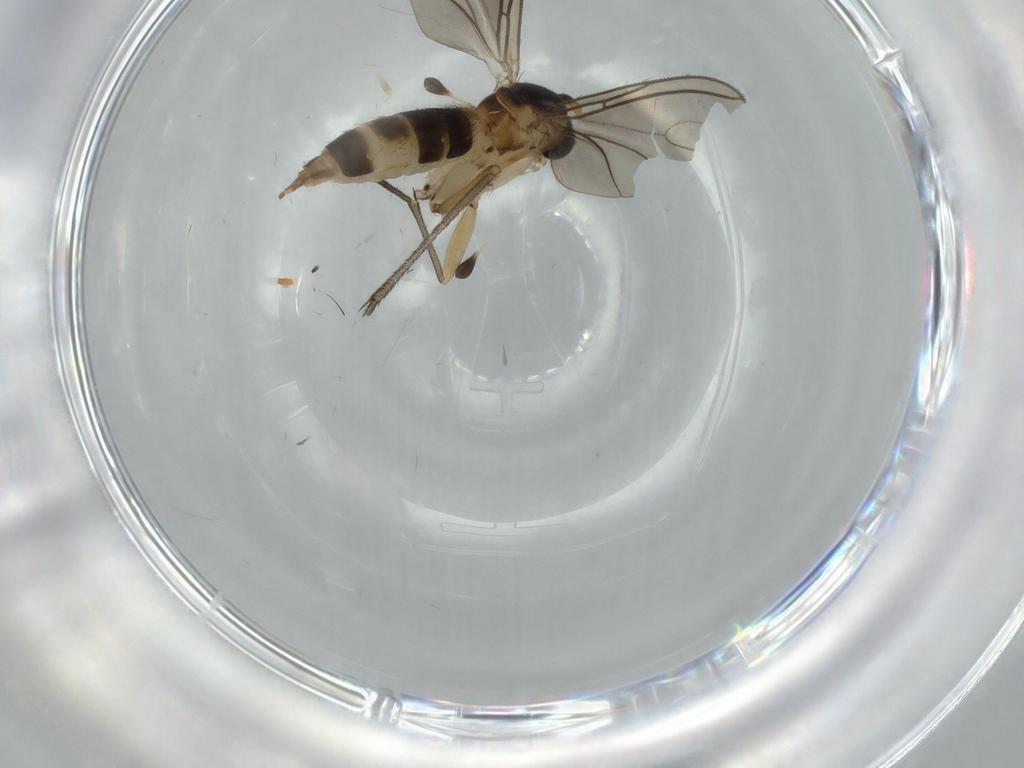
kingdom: Animalia
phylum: Arthropoda
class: Insecta
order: Diptera
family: Sciaridae
